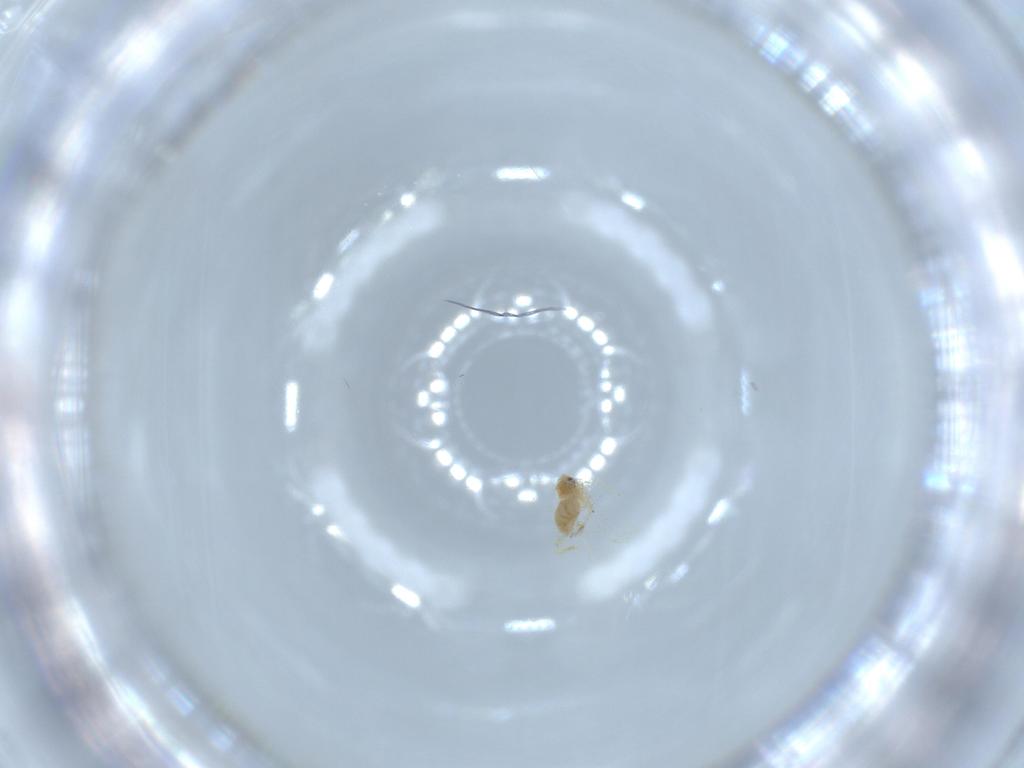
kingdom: Animalia
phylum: Arthropoda
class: Insecta
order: Hemiptera
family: Aleyrodidae
